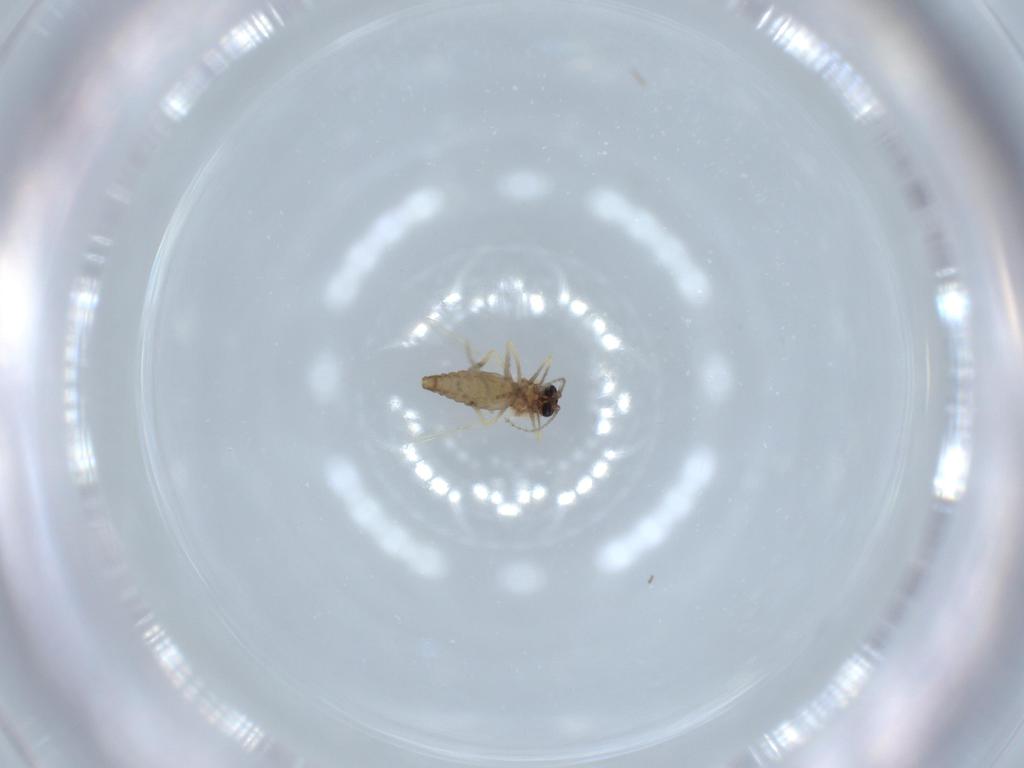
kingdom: Animalia
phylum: Arthropoda
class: Insecta
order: Diptera
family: Ceratopogonidae
